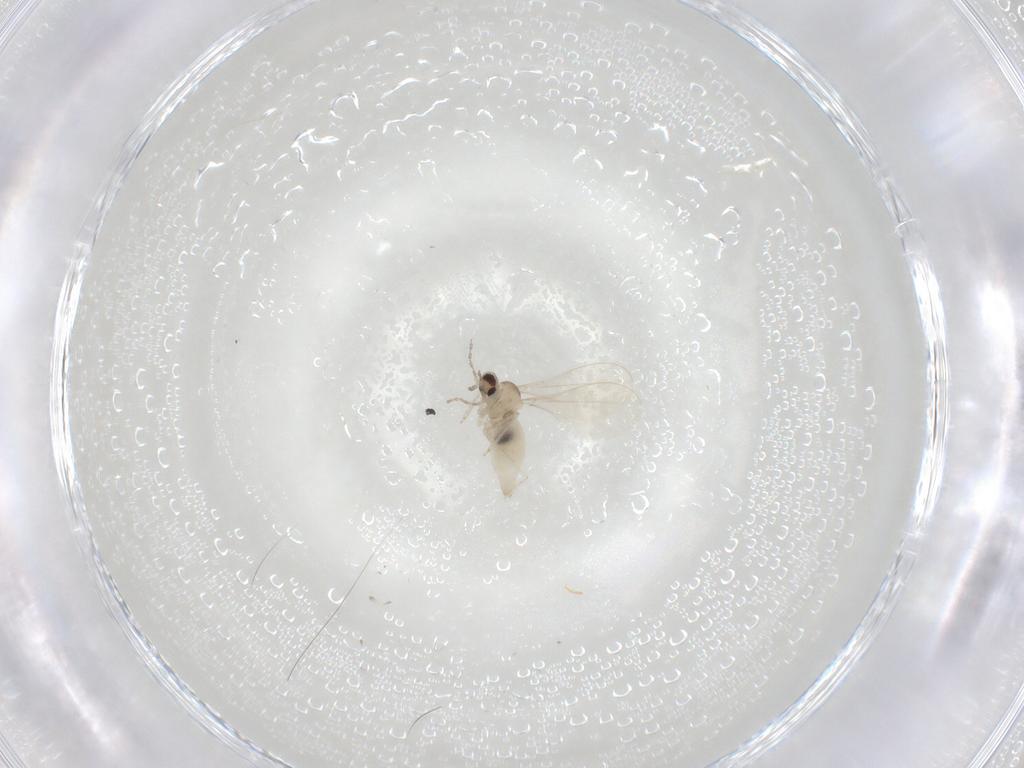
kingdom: Animalia
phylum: Arthropoda
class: Insecta
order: Diptera
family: Cecidomyiidae
